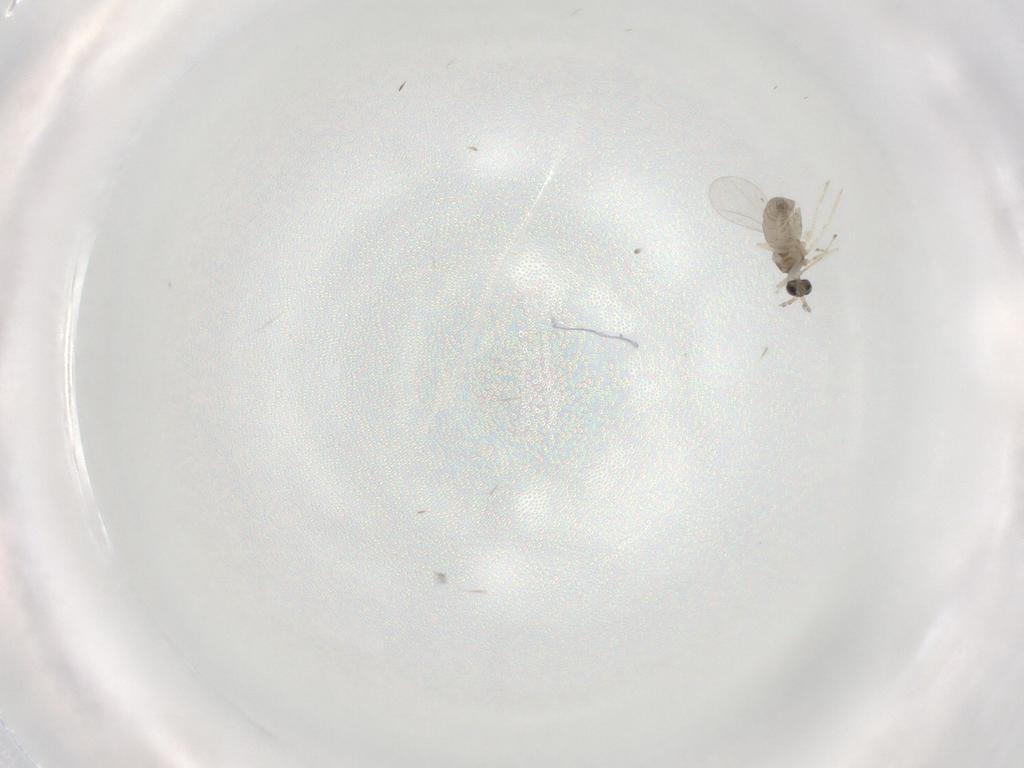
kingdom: Animalia
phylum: Arthropoda
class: Insecta
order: Diptera
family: Cecidomyiidae
